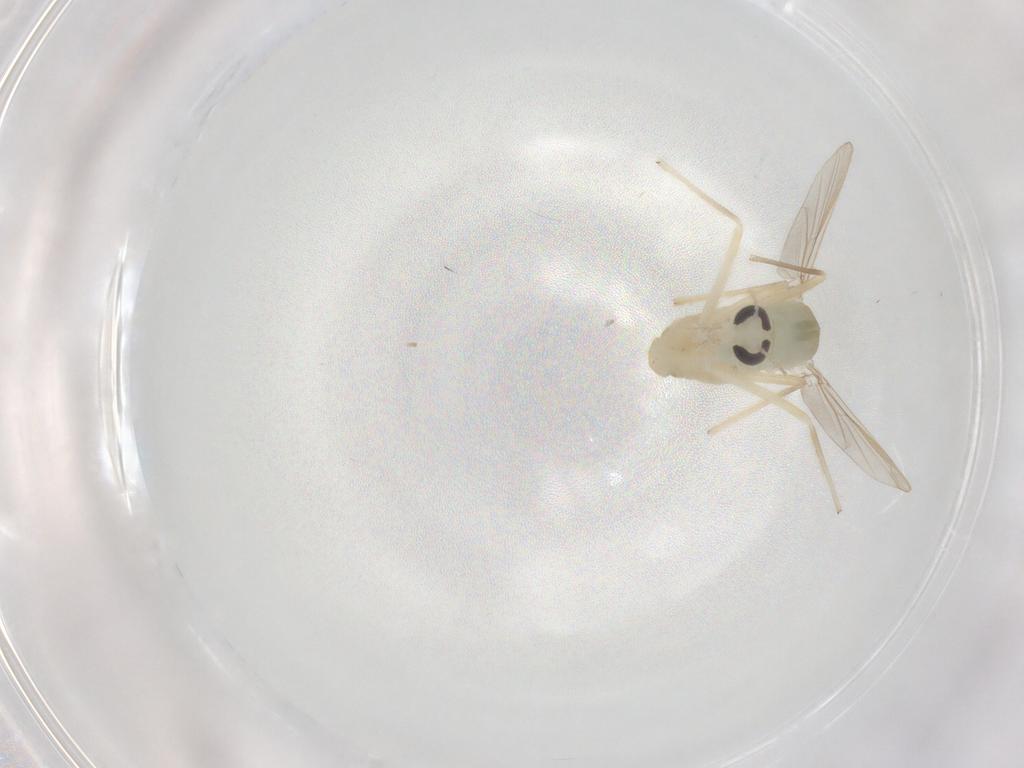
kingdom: Animalia
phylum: Arthropoda
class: Insecta
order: Diptera
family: Chironomidae
